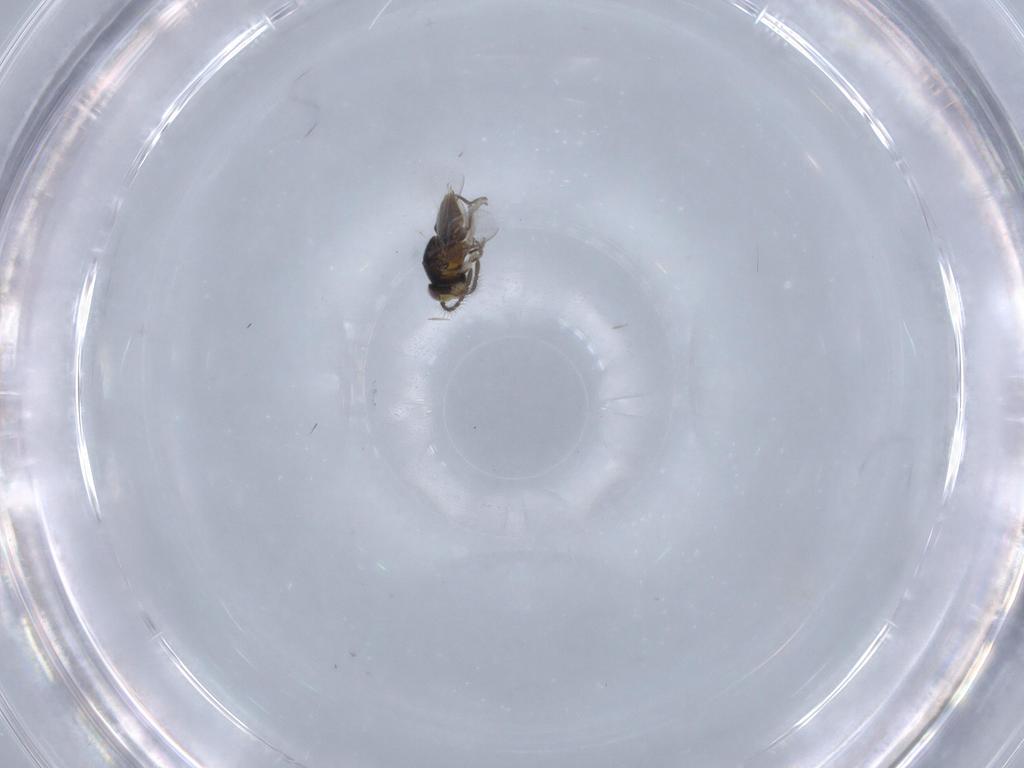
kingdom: Animalia
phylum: Arthropoda
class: Insecta
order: Hymenoptera
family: Encyrtidae
